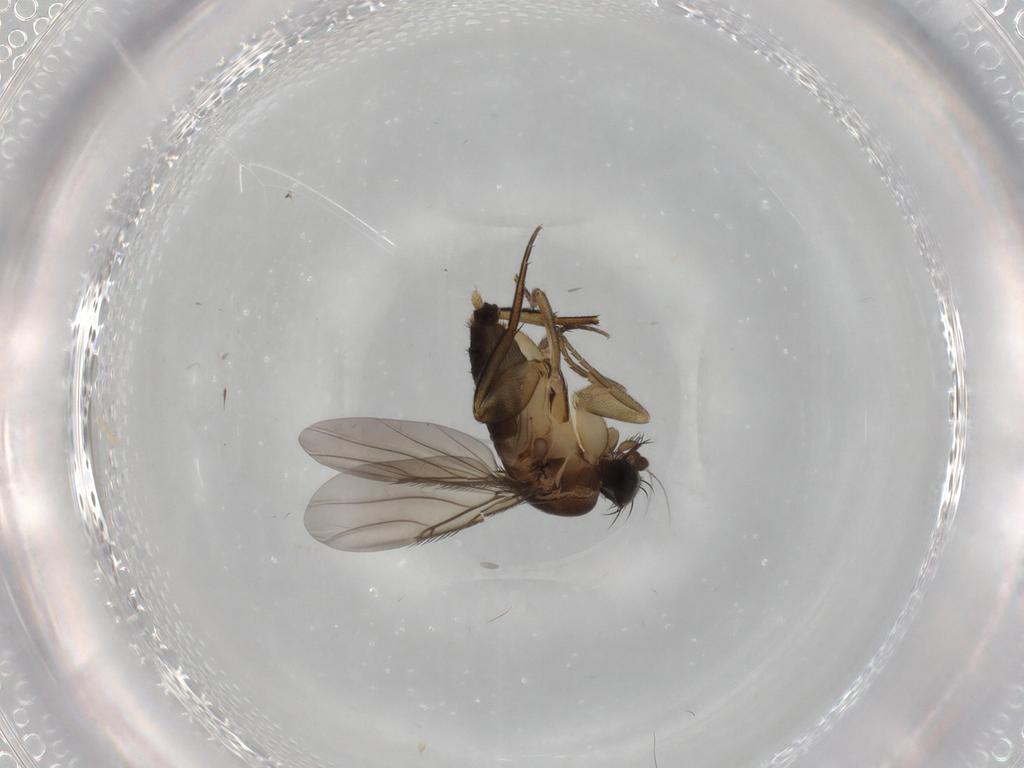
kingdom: Animalia
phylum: Arthropoda
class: Insecta
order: Diptera
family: Phoridae
